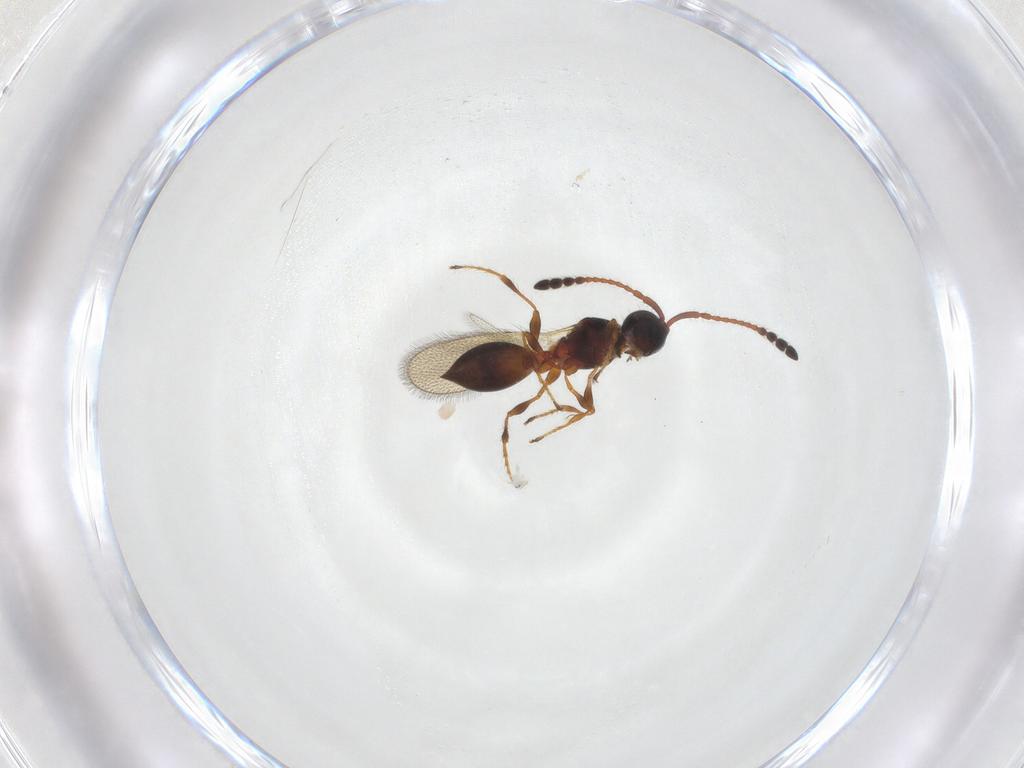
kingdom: Animalia
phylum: Arthropoda
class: Insecta
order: Hymenoptera
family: Diapriidae
